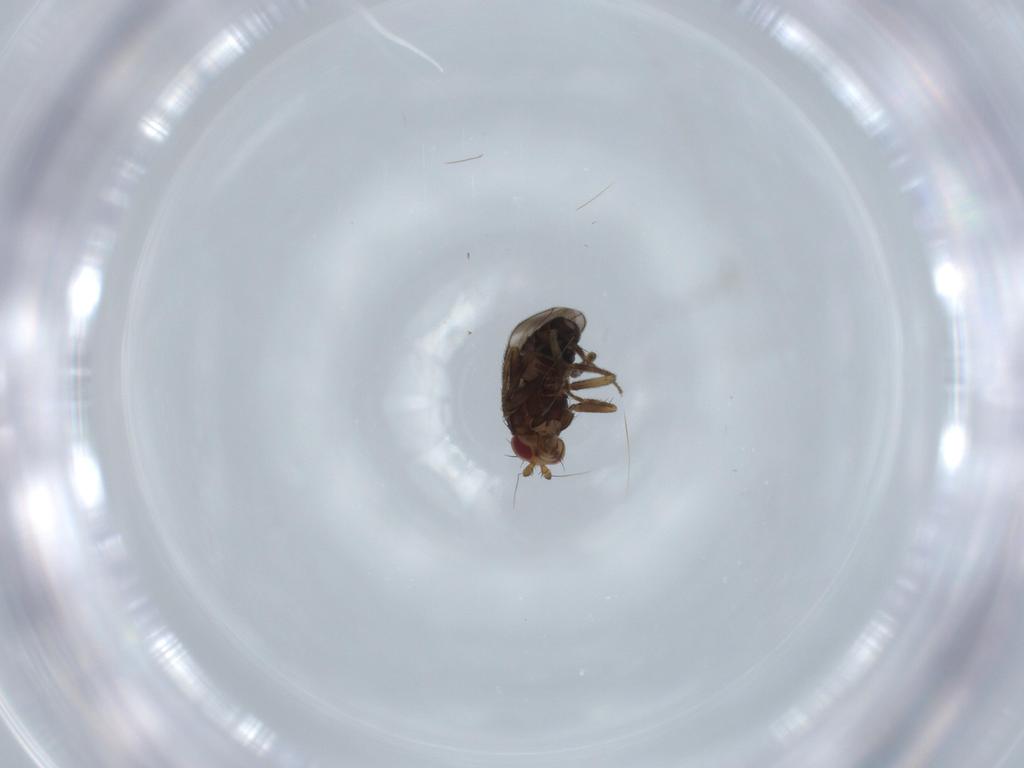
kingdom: Animalia
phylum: Arthropoda
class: Insecta
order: Diptera
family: Sphaeroceridae
